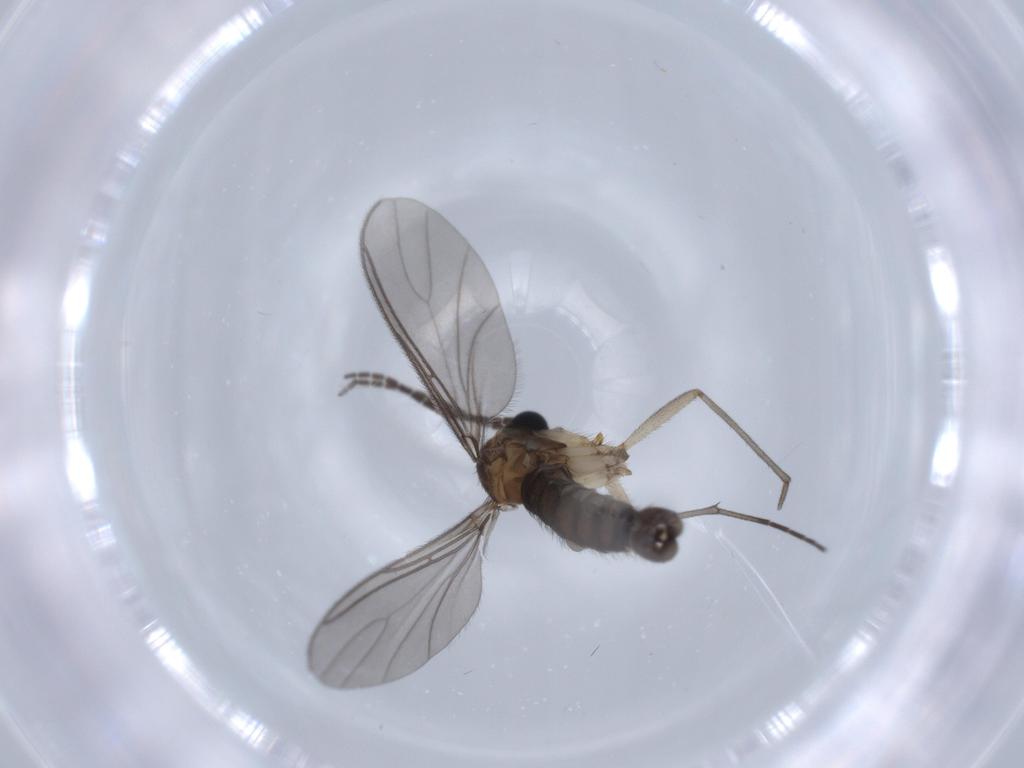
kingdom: Animalia
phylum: Arthropoda
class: Insecta
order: Diptera
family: Sciaridae
